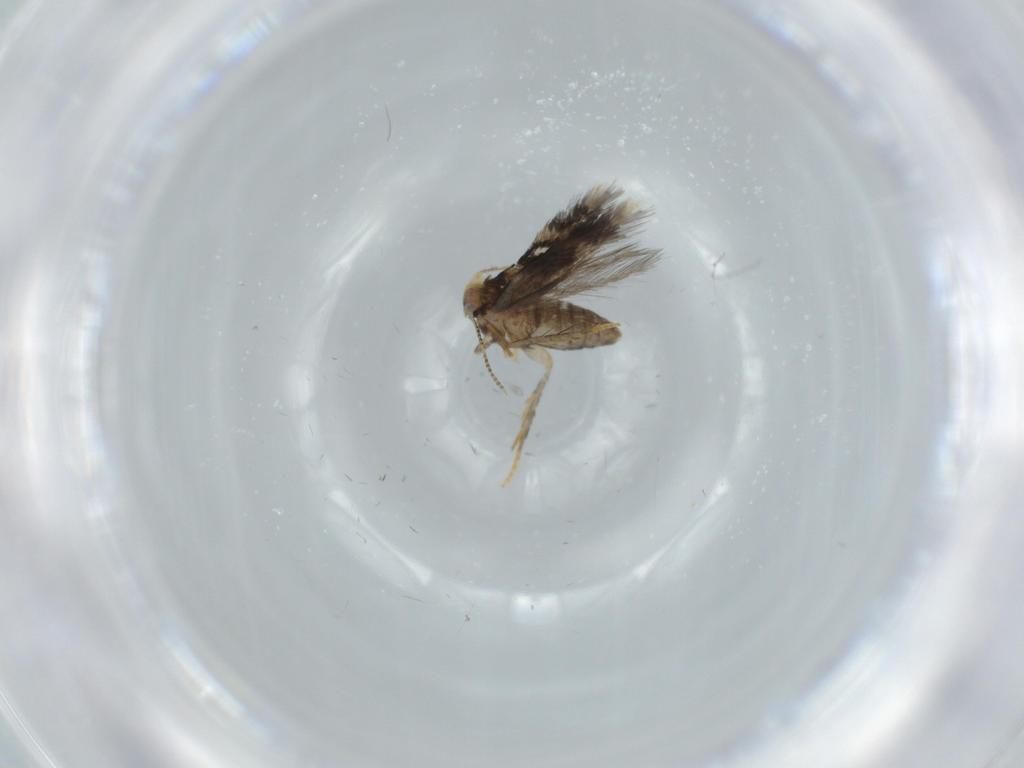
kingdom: Animalia
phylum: Arthropoda
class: Insecta
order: Lepidoptera
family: Nepticulidae
